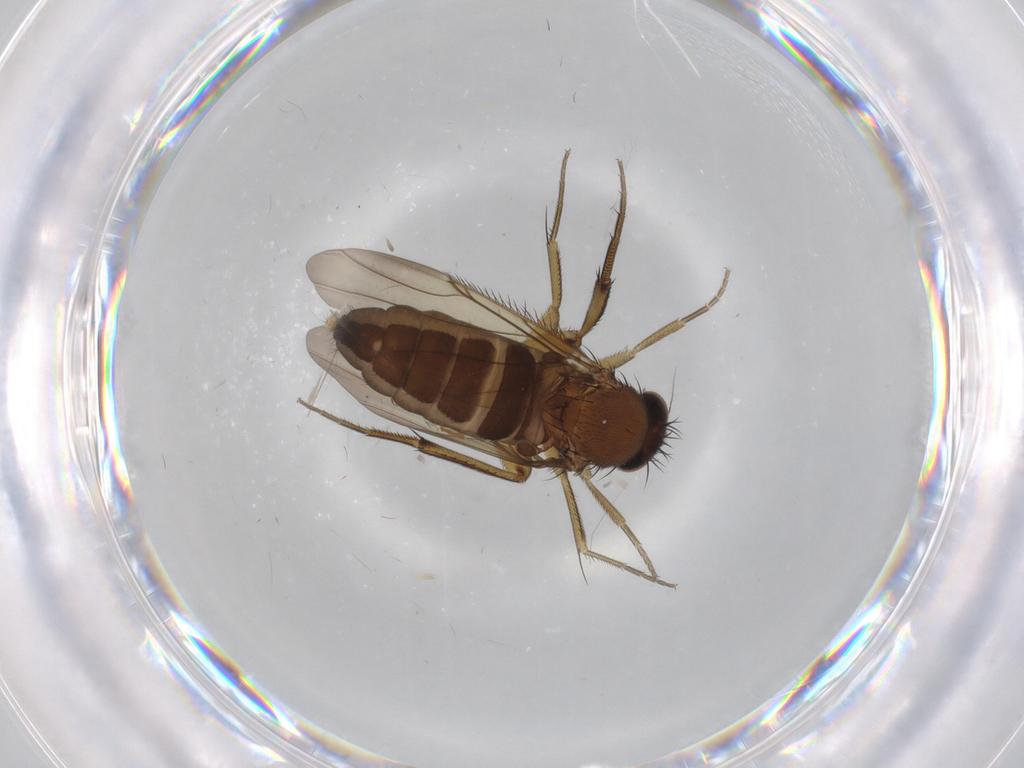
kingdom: Animalia
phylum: Arthropoda
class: Insecta
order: Diptera
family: Phoridae
